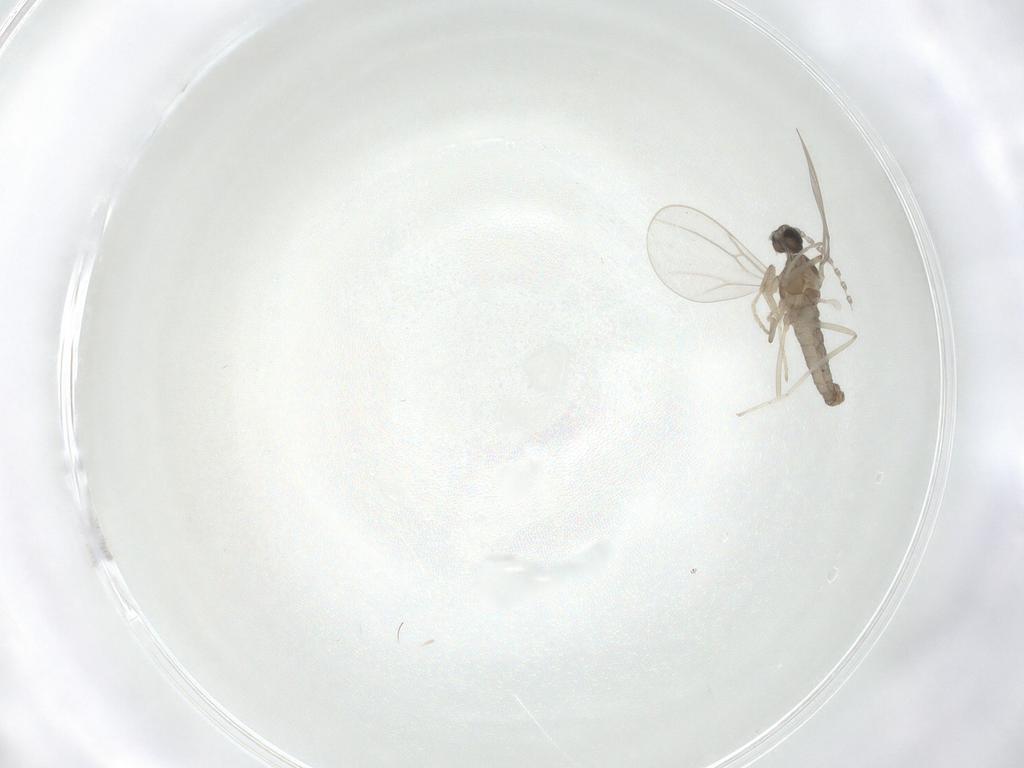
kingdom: Animalia
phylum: Arthropoda
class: Insecta
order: Diptera
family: Cecidomyiidae
